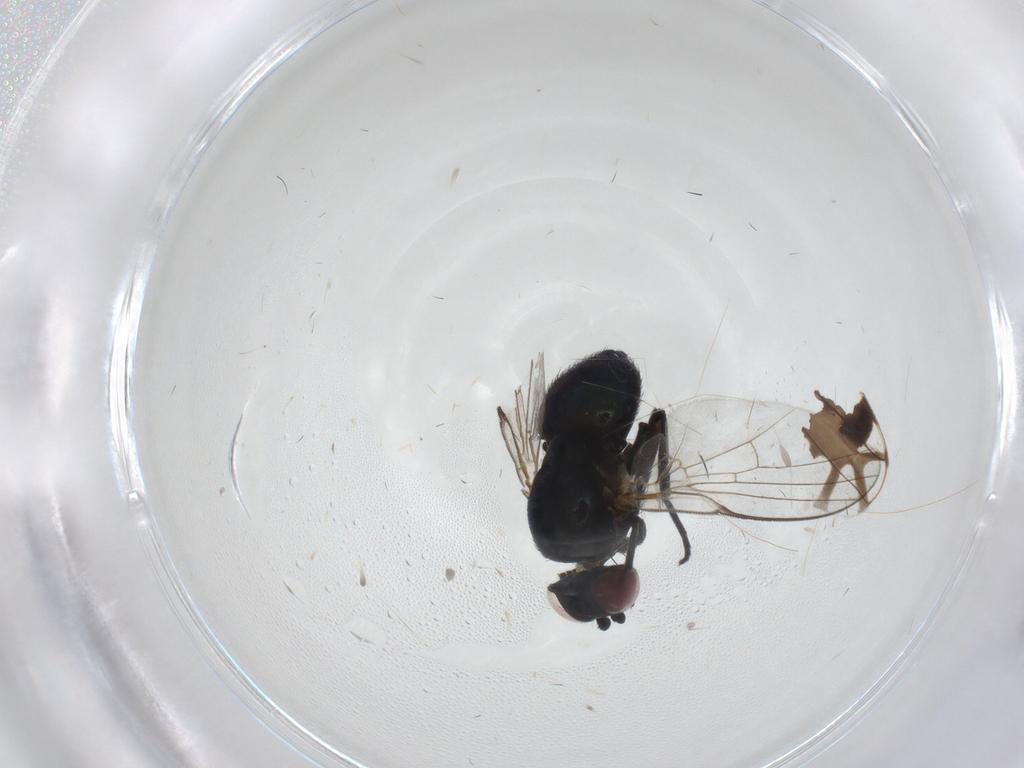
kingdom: Animalia
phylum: Arthropoda
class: Insecta
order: Diptera
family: Agromyzidae
